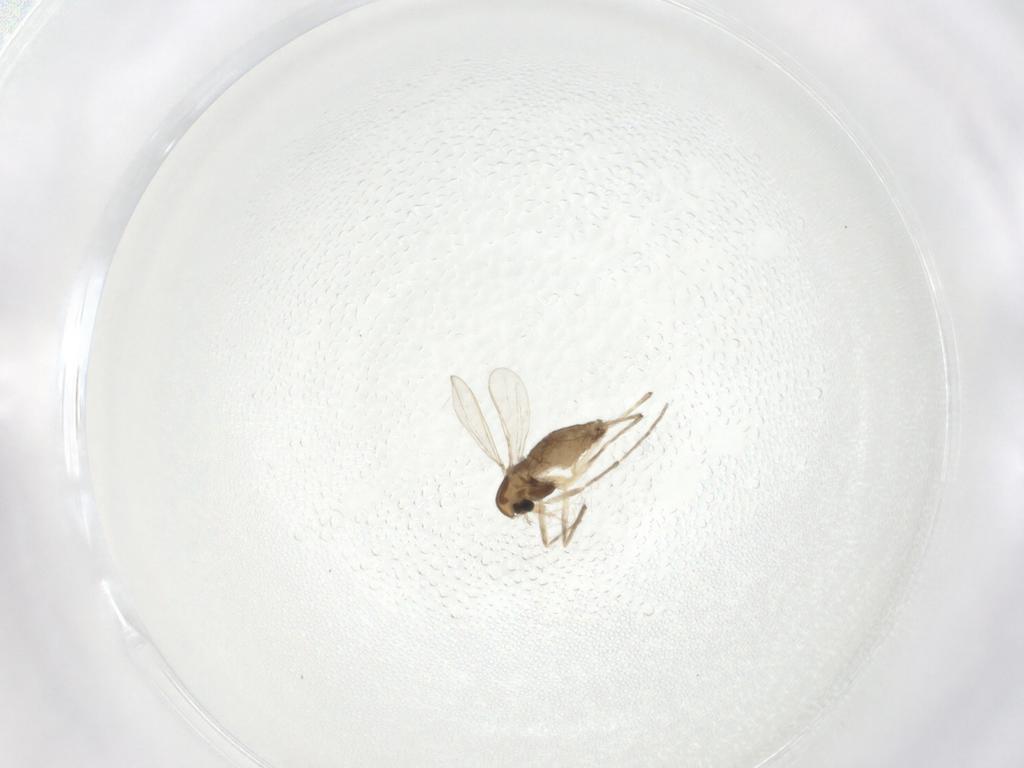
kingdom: Animalia
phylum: Arthropoda
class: Insecta
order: Diptera
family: Chironomidae
